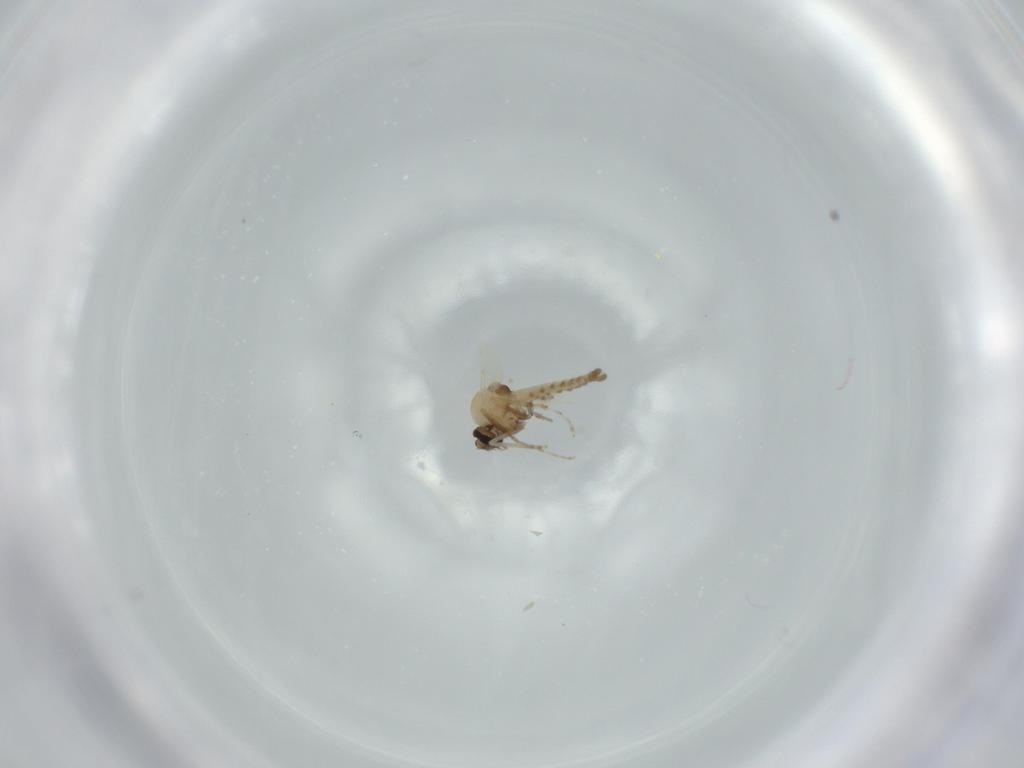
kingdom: Animalia
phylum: Arthropoda
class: Insecta
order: Diptera
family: Ceratopogonidae
